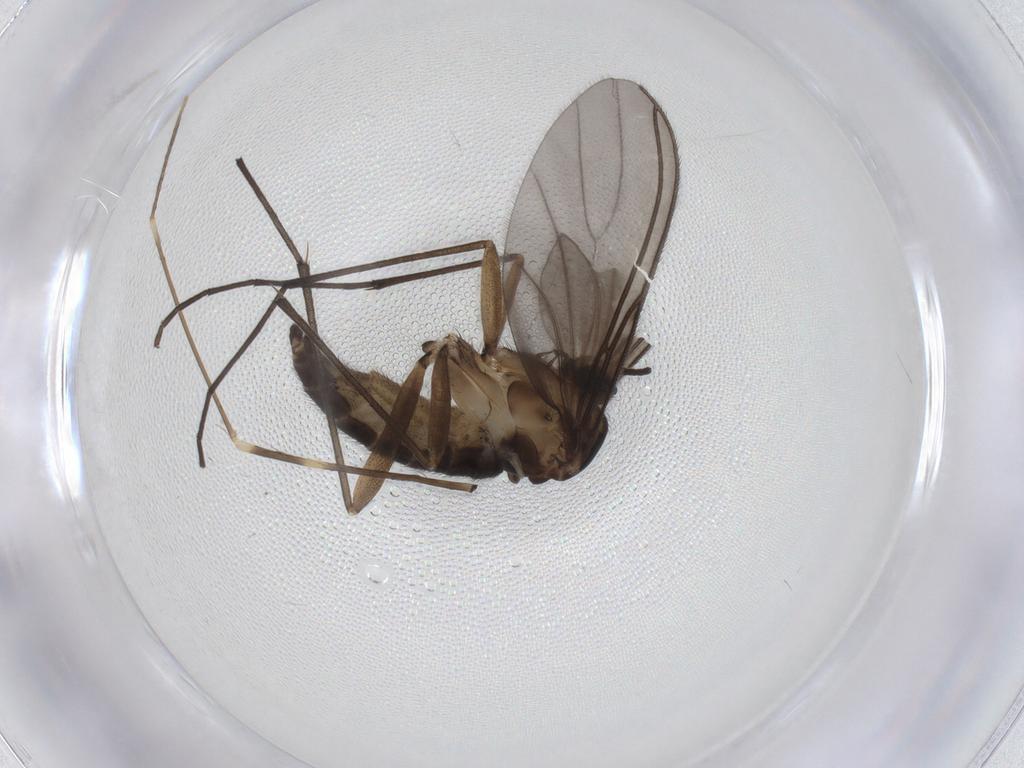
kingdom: Animalia
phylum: Arthropoda
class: Insecta
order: Diptera
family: Sciaridae
